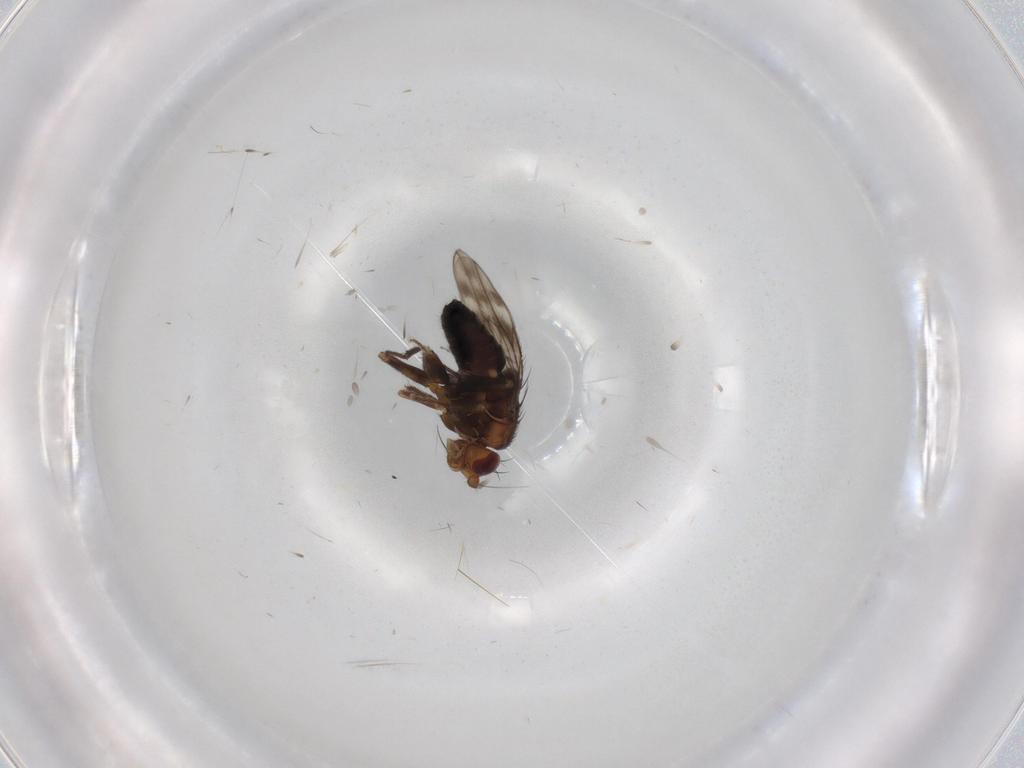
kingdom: Animalia
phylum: Arthropoda
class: Insecta
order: Diptera
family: Sphaeroceridae
